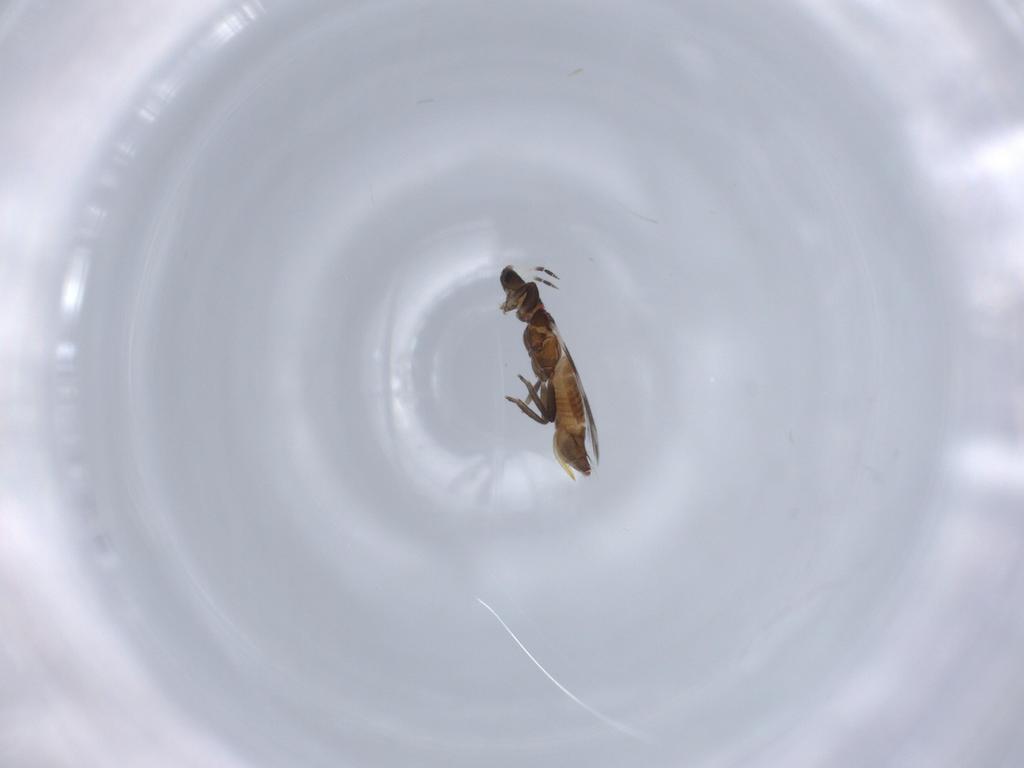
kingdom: Animalia
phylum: Arthropoda
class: Insecta
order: Thysanoptera
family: Aeolothripidae
